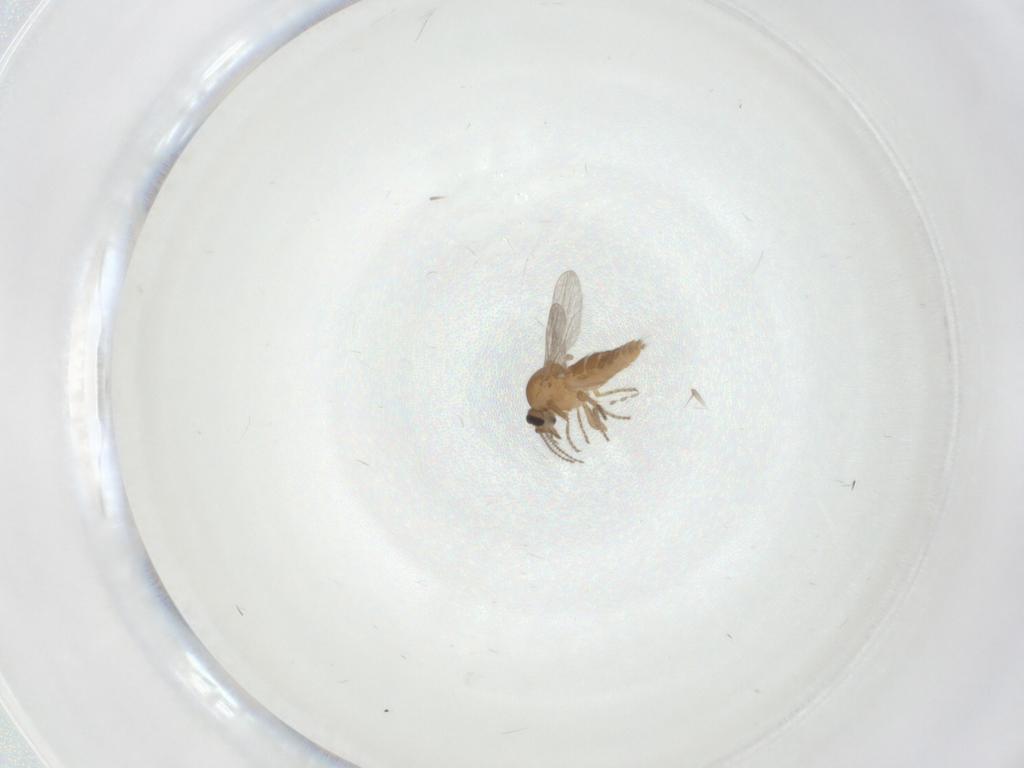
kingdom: Animalia
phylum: Arthropoda
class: Insecta
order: Diptera
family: Ceratopogonidae
